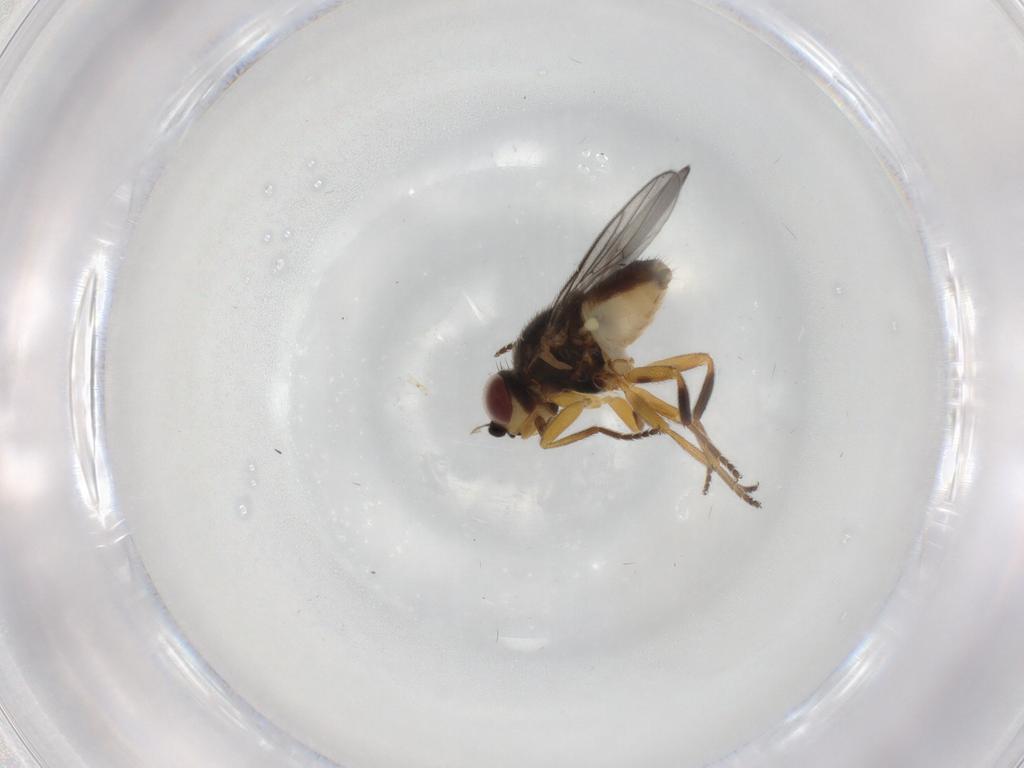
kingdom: Animalia
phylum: Arthropoda
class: Insecta
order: Diptera
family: Chloropidae
